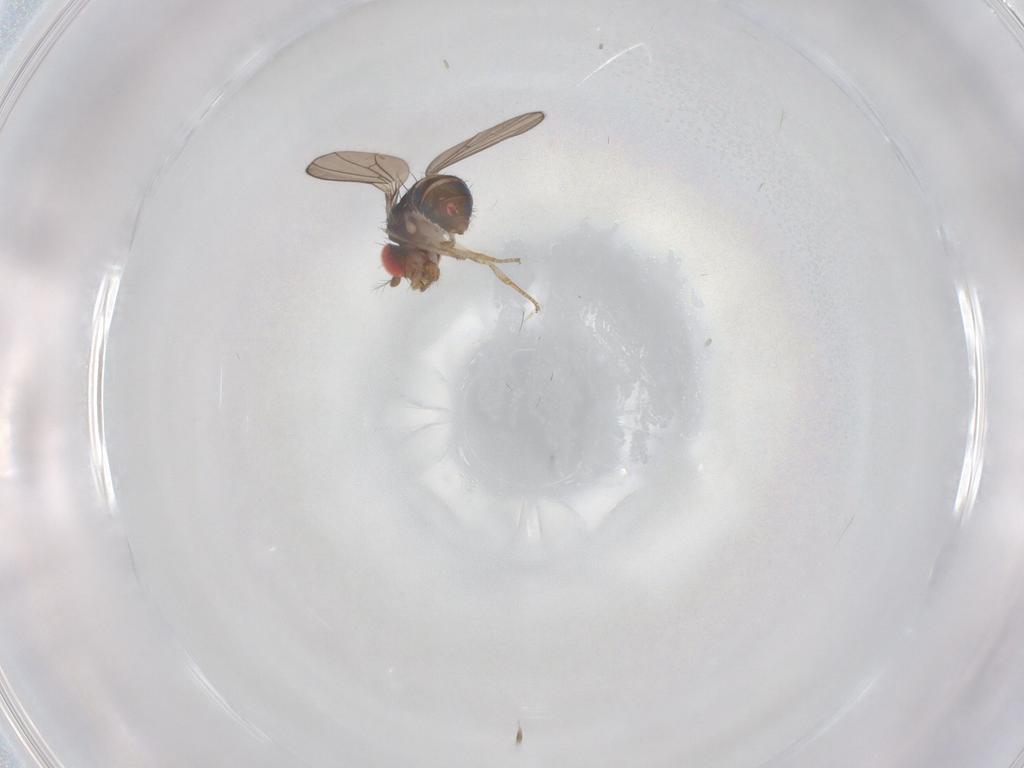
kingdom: Animalia
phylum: Arthropoda
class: Insecta
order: Diptera
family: Drosophilidae
